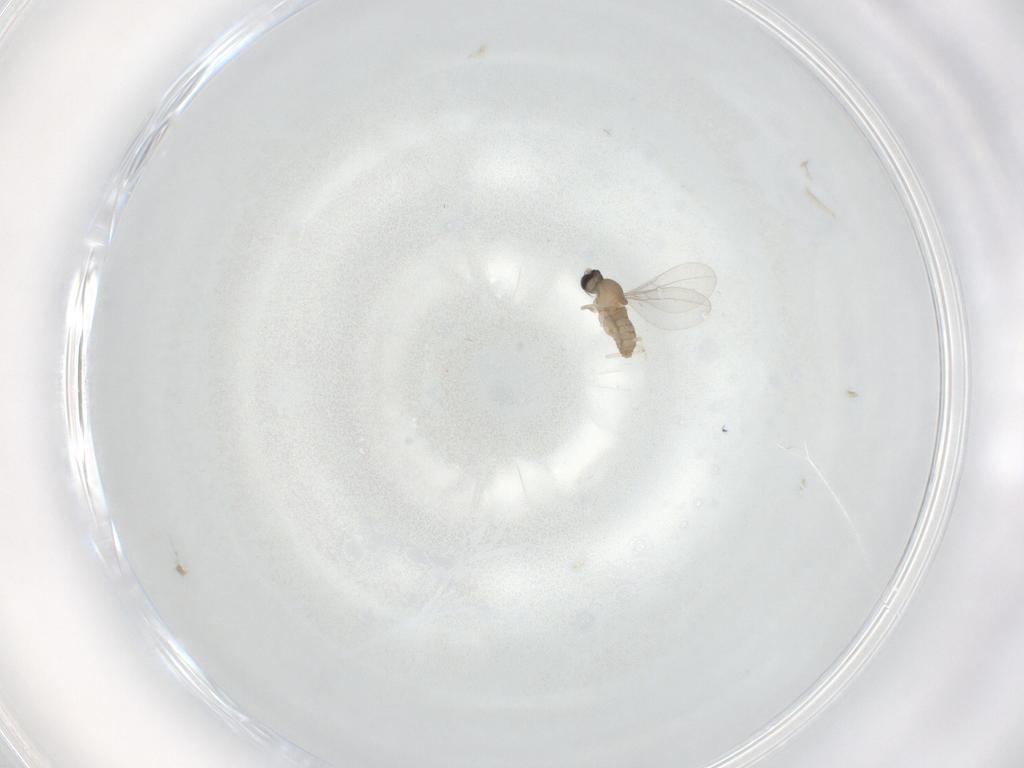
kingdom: Animalia
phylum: Arthropoda
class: Insecta
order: Diptera
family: Limoniidae
